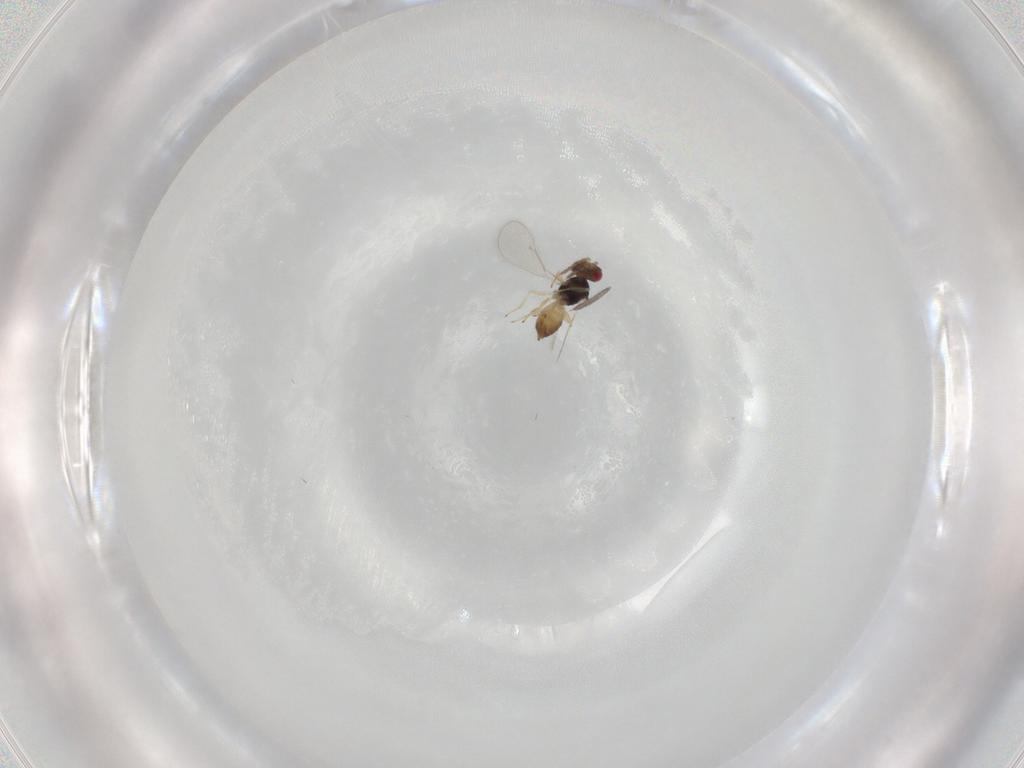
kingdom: Animalia
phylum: Arthropoda
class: Insecta
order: Hymenoptera
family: Eulophidae
